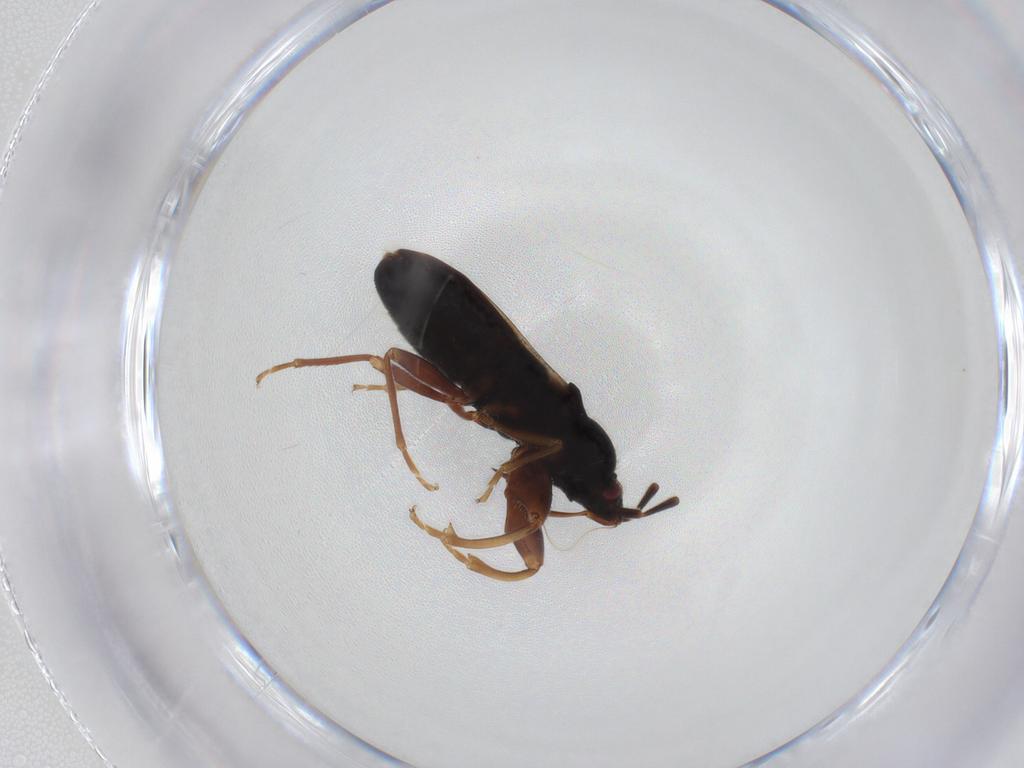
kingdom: Animalia
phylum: Arthropoda
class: Insecta
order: Hemiptera
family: Rhyparochromidae
